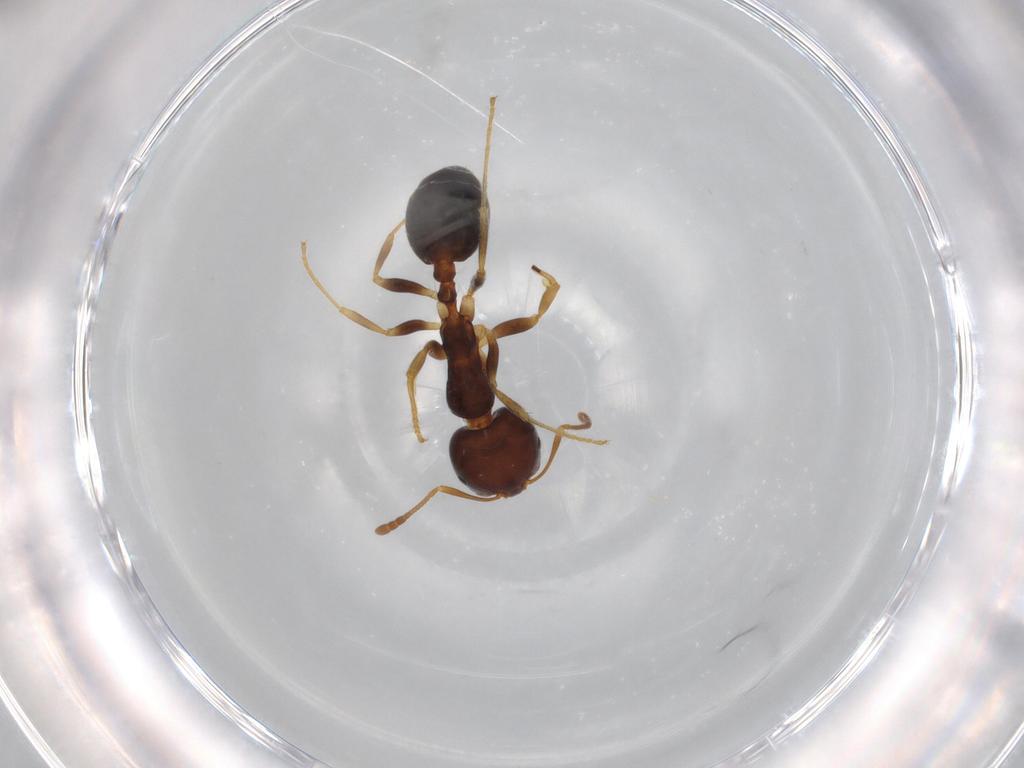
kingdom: Animalia
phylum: Arthropoda
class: Insecta
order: Hymenoptera
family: Formicidae
